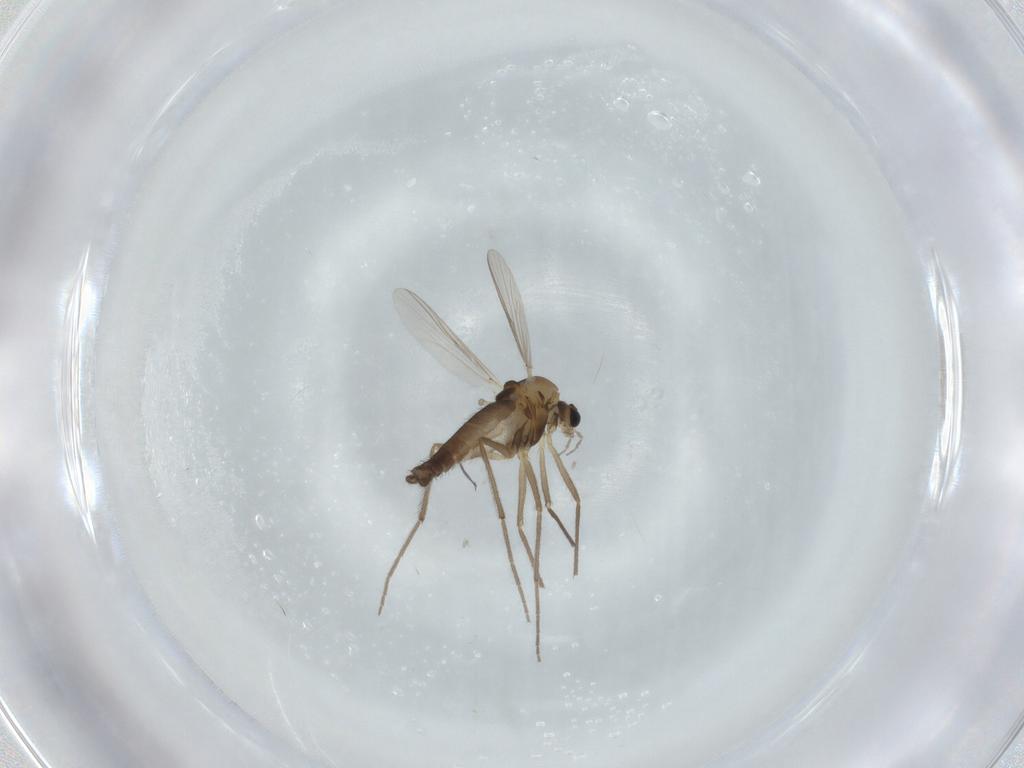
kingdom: Animalia
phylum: Arthropoda
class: Insecta
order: Diptera
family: Chironomidae
